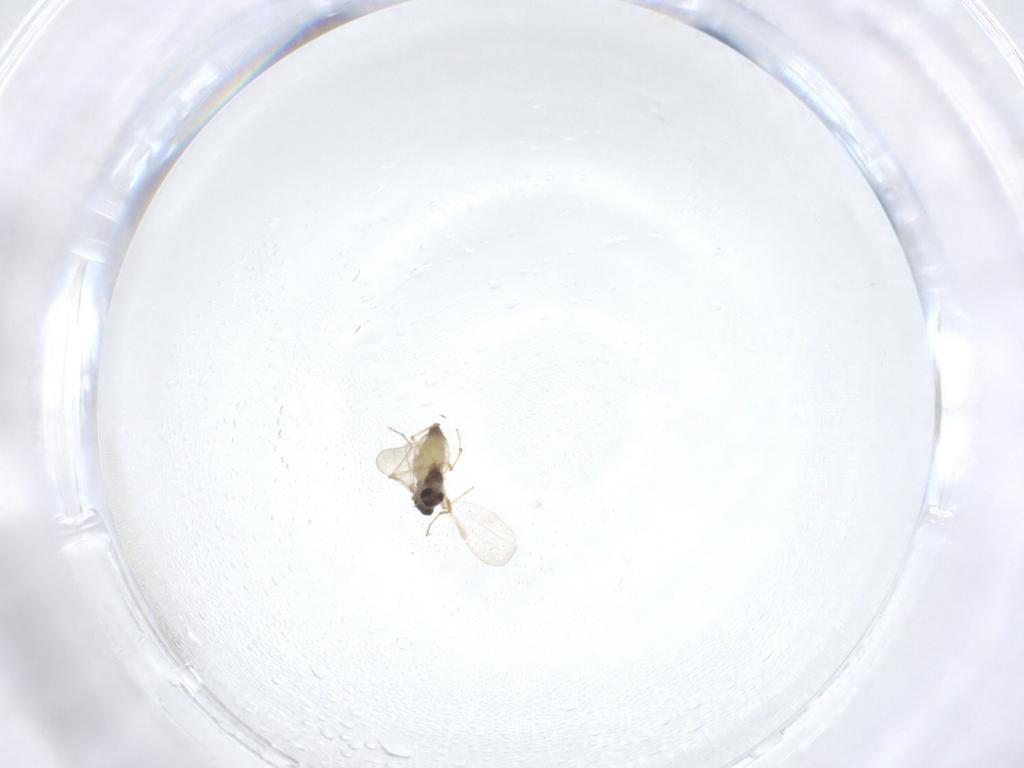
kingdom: Animalia
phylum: Arthropoda
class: Insecta
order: Diptera
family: Chironomidae
